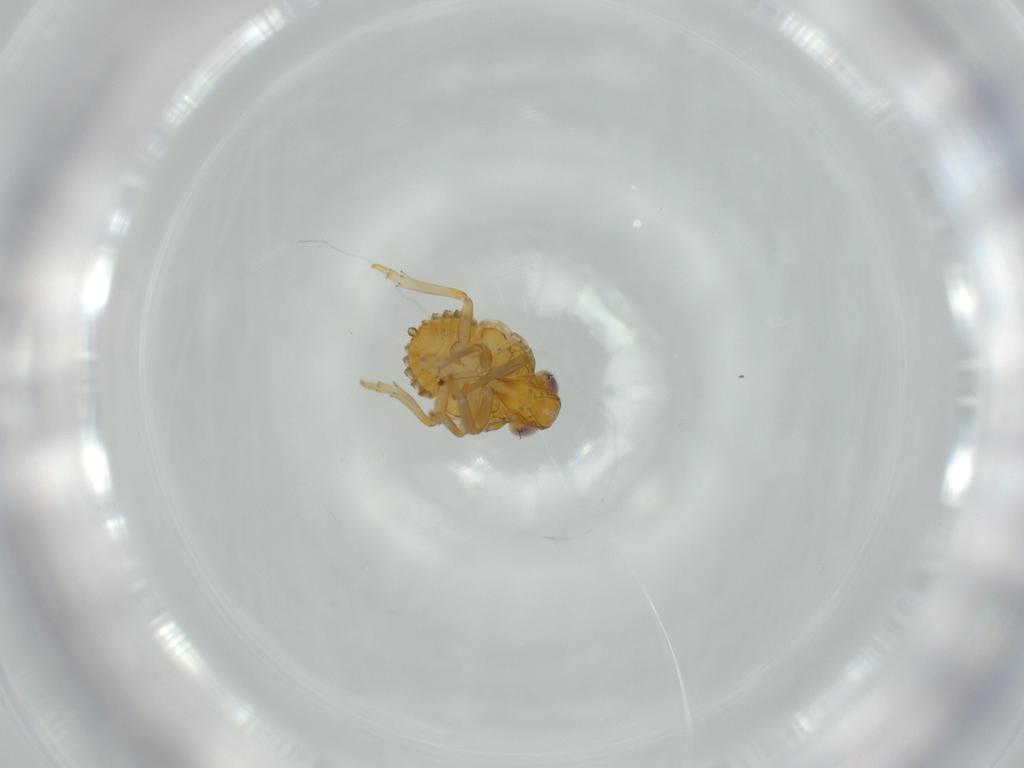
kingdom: Animalia
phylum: Arthropoda
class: Insecta
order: Hemiptera
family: Issidae
